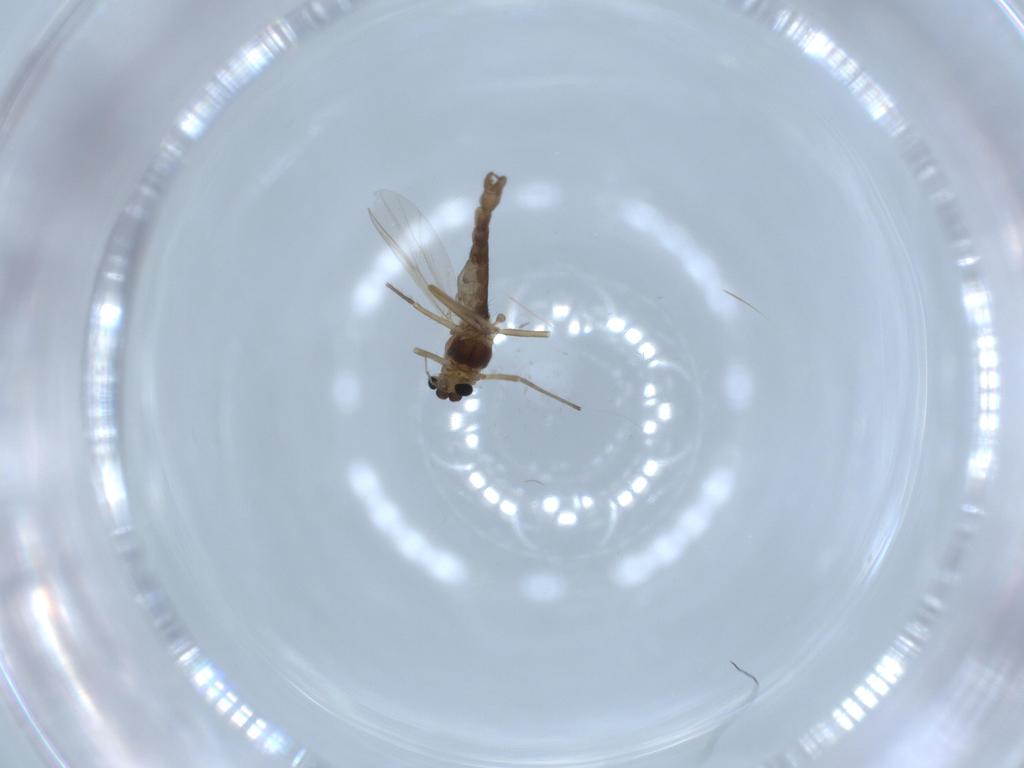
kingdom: Animalia
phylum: Arthropoda
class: Insecta
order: Diptera
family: Chironomidae
